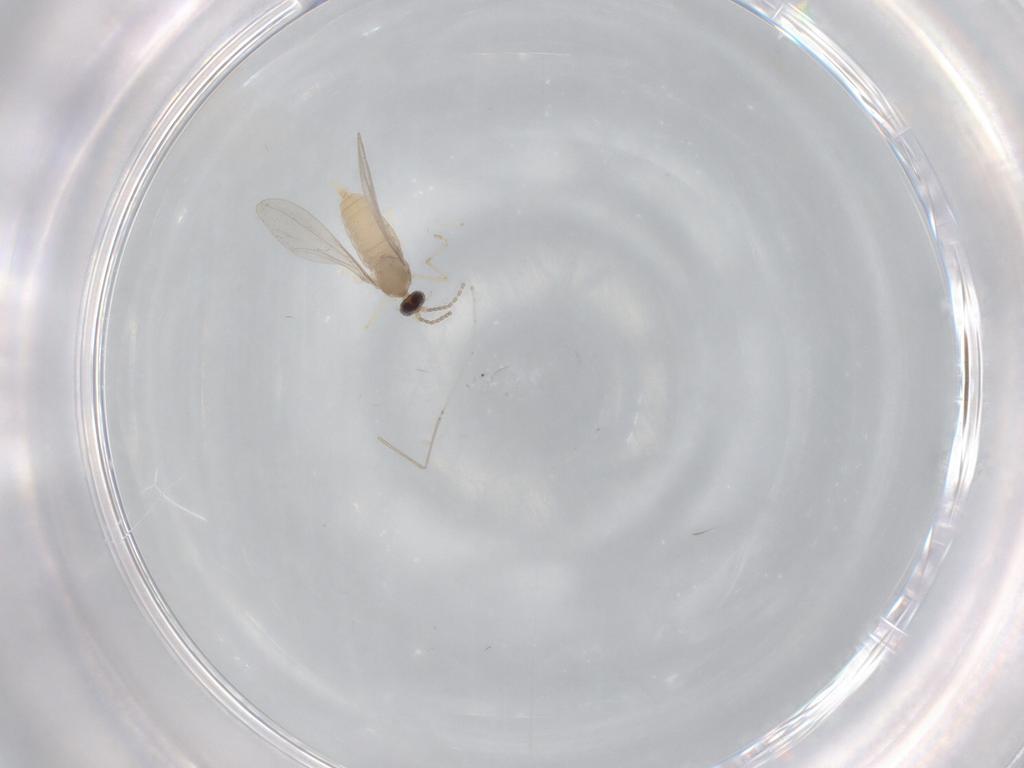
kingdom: Animalia
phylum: Arthropoda
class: Insecta
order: Diptera
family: Cecidomyiidae
